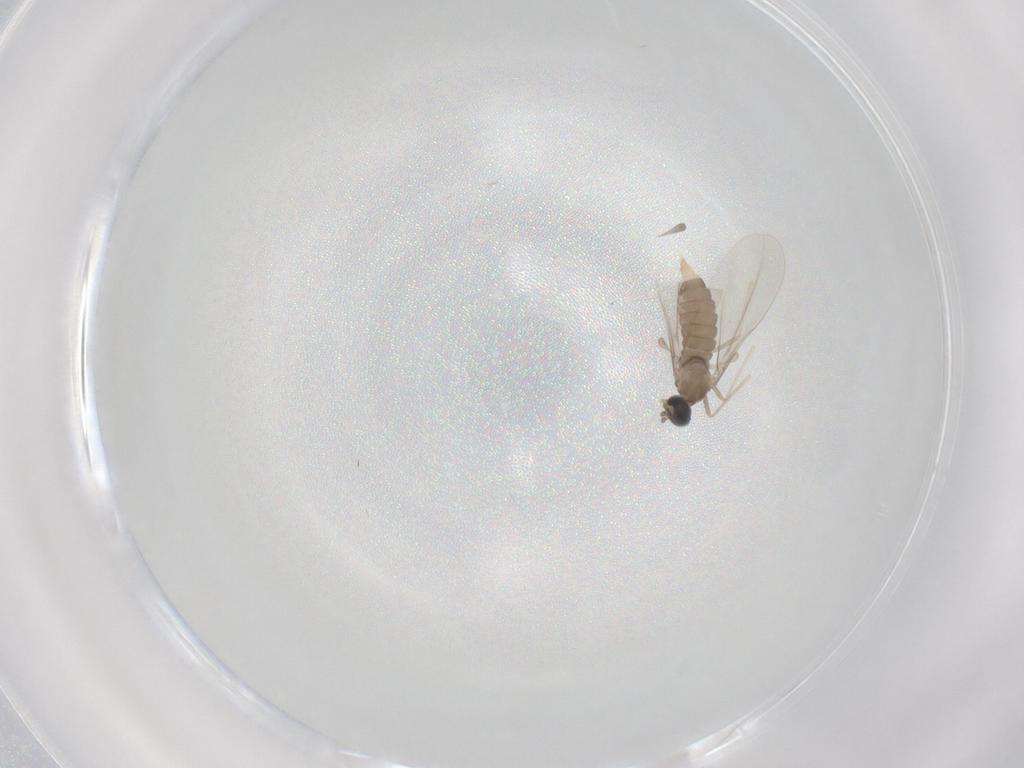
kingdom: Animalia
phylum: Arthropoda
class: Insecta
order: Diptera
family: Cecidomyiidae
